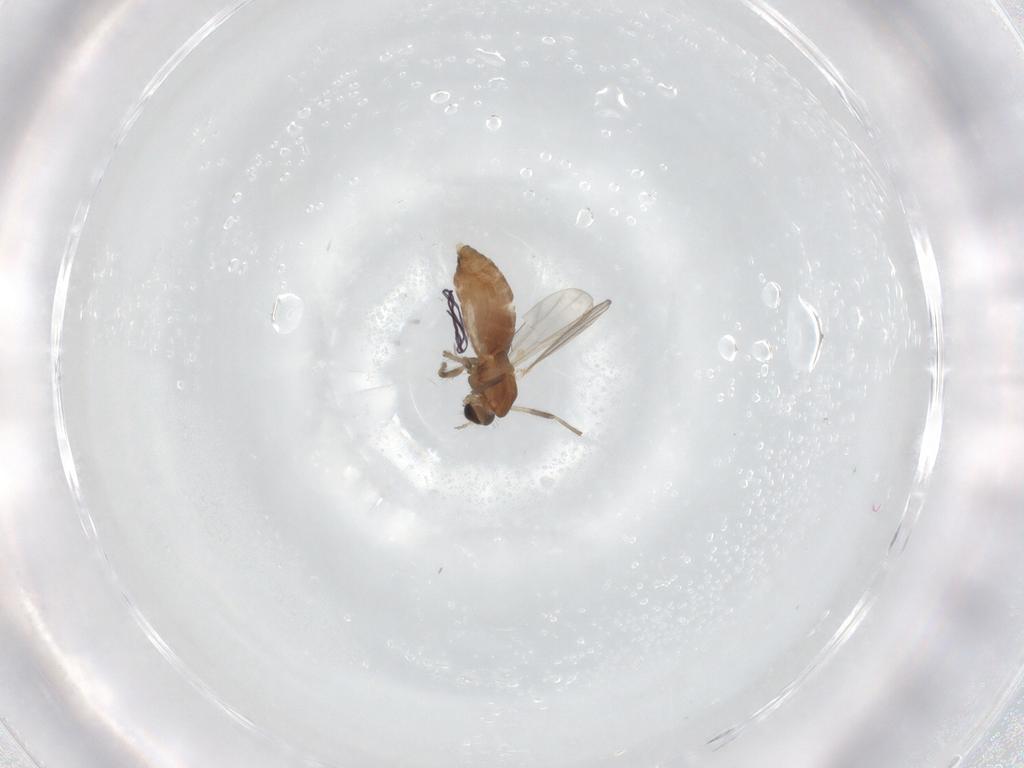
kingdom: Animalia
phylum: Arthropoda
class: Insecta
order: Diptera
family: Chironomidae
